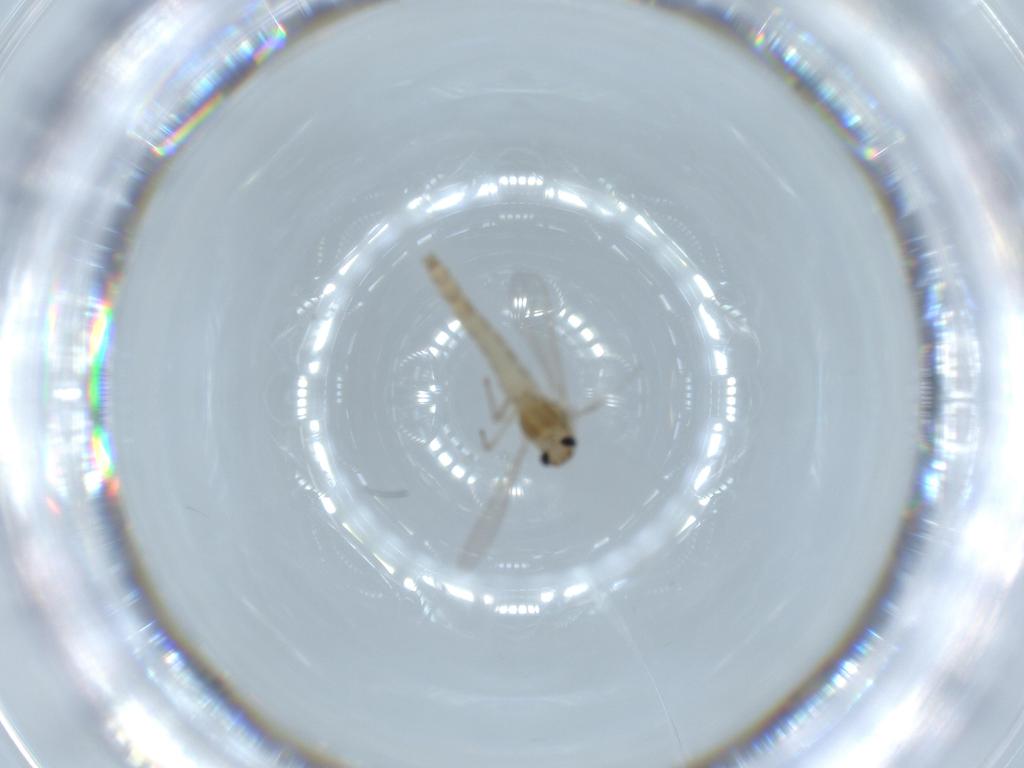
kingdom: Animalia
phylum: Arthropoda
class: Insecta
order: Diptera
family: Chironomidae
